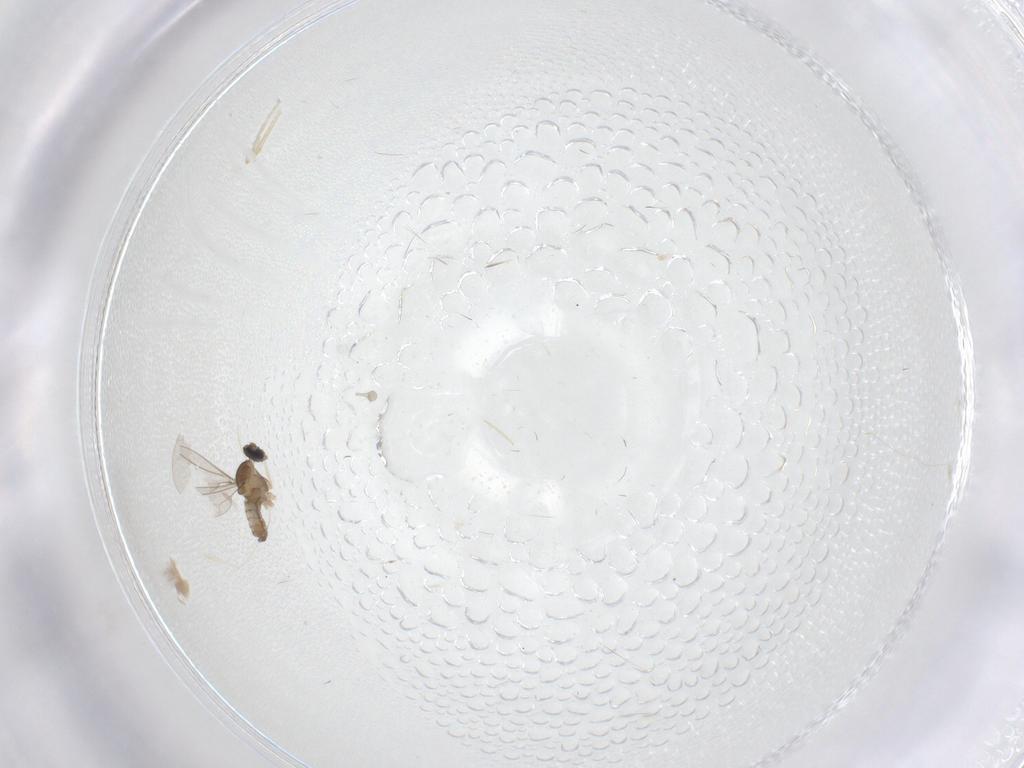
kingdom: Animalia
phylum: Arthropoda
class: Insecta
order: Diptera
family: Cecidomyiidae
